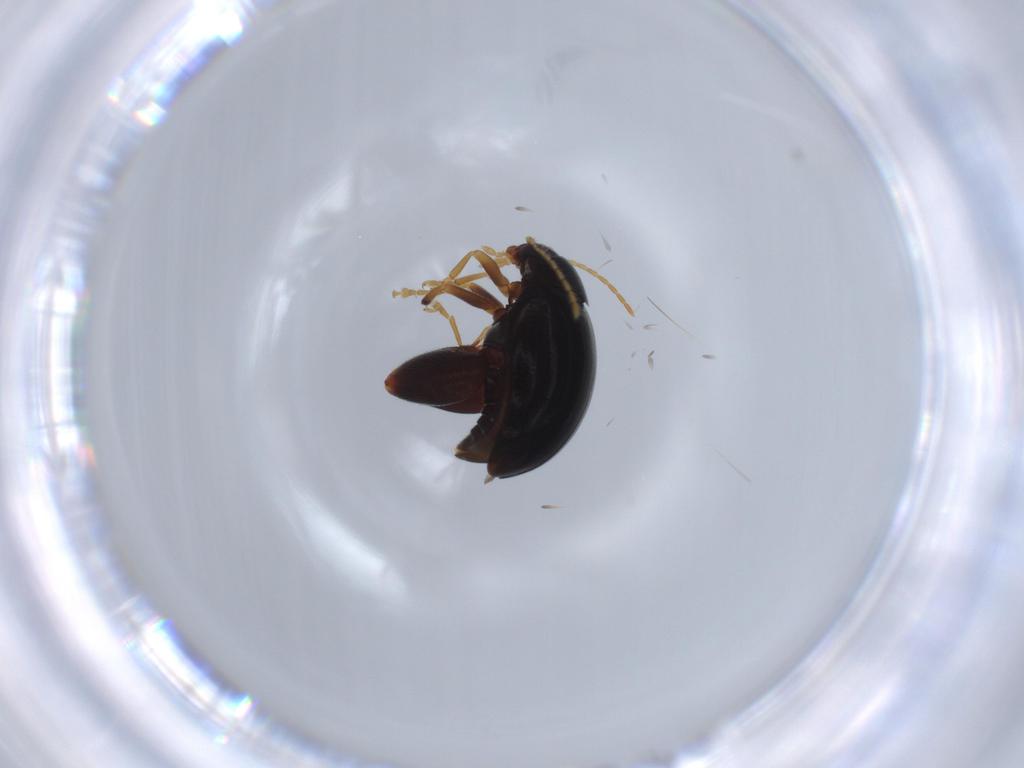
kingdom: Animalia
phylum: Arthropoda
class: Insecta
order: Coleoptera
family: Chrysomelidae
